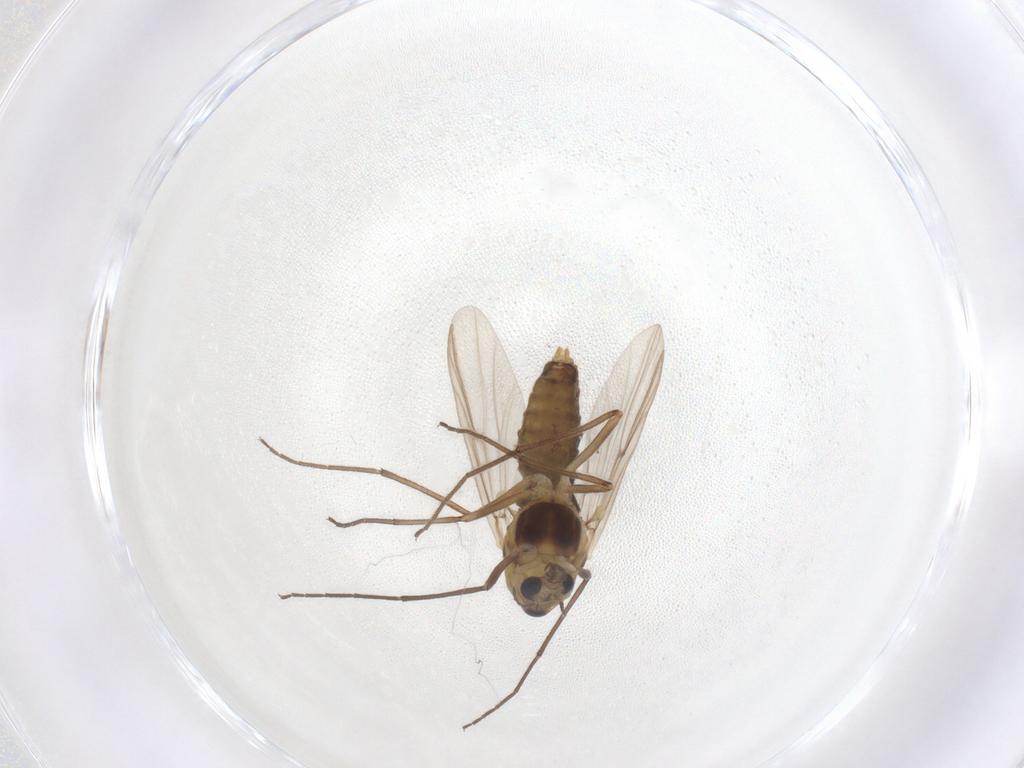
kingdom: Animalia
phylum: Arthropoda
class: Insecta
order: Diptera
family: Chironomidae
